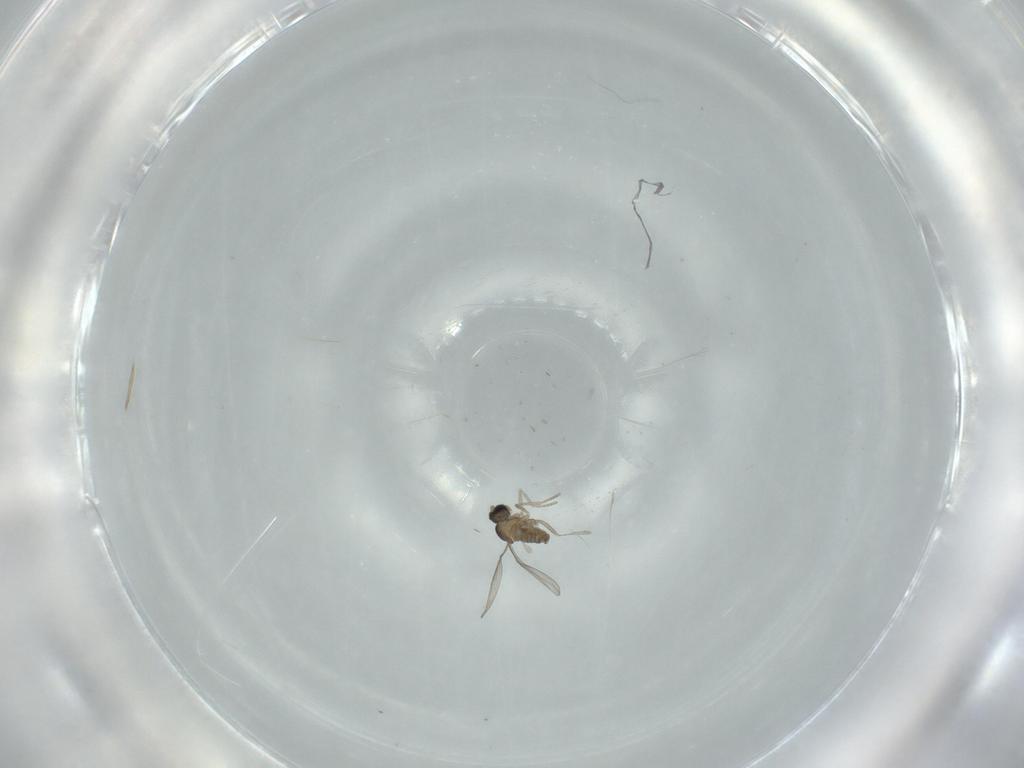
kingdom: Animalia
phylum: Arthropoda
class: Insecta
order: Diptera
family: Cecidomyiidae
